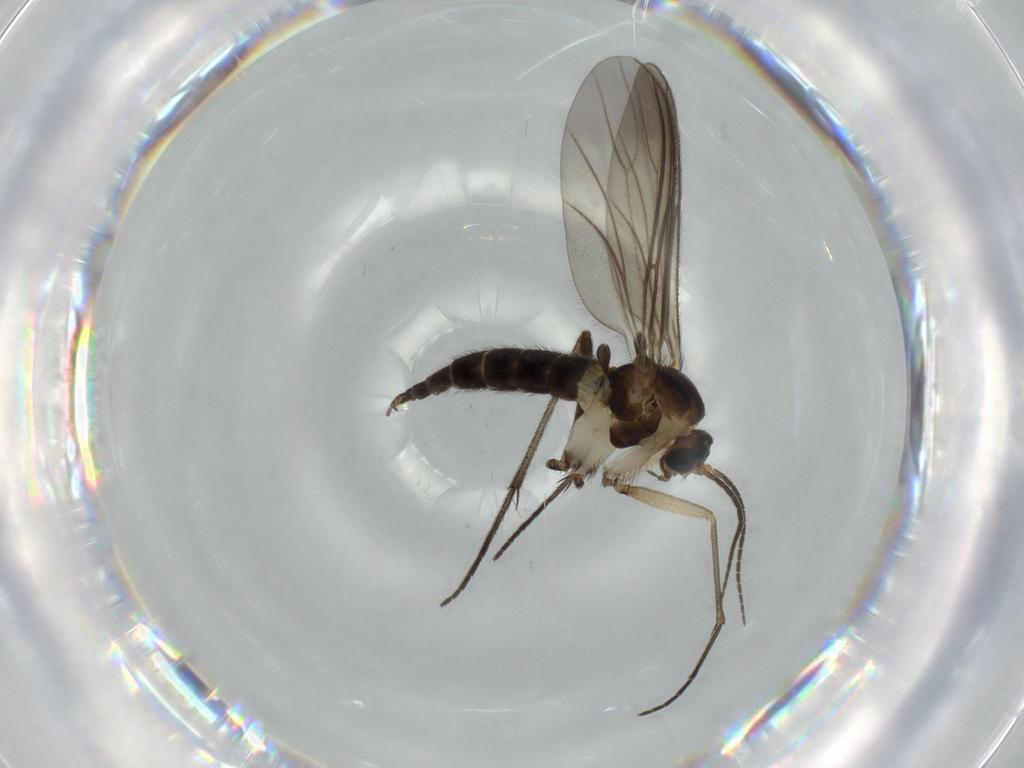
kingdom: Animalia
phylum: Arthropoda
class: Insecta
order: Diptera
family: Sciaridae
